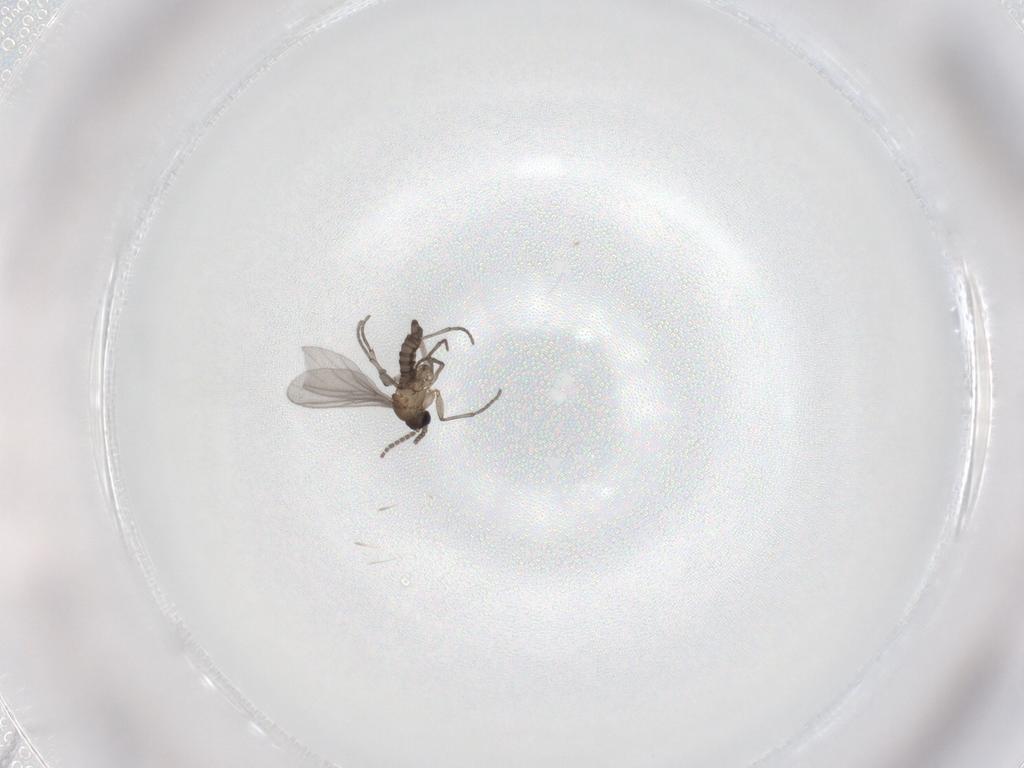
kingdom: Animalia
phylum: Arthropoda
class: Insecta
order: Diptera
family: Sciaridae
